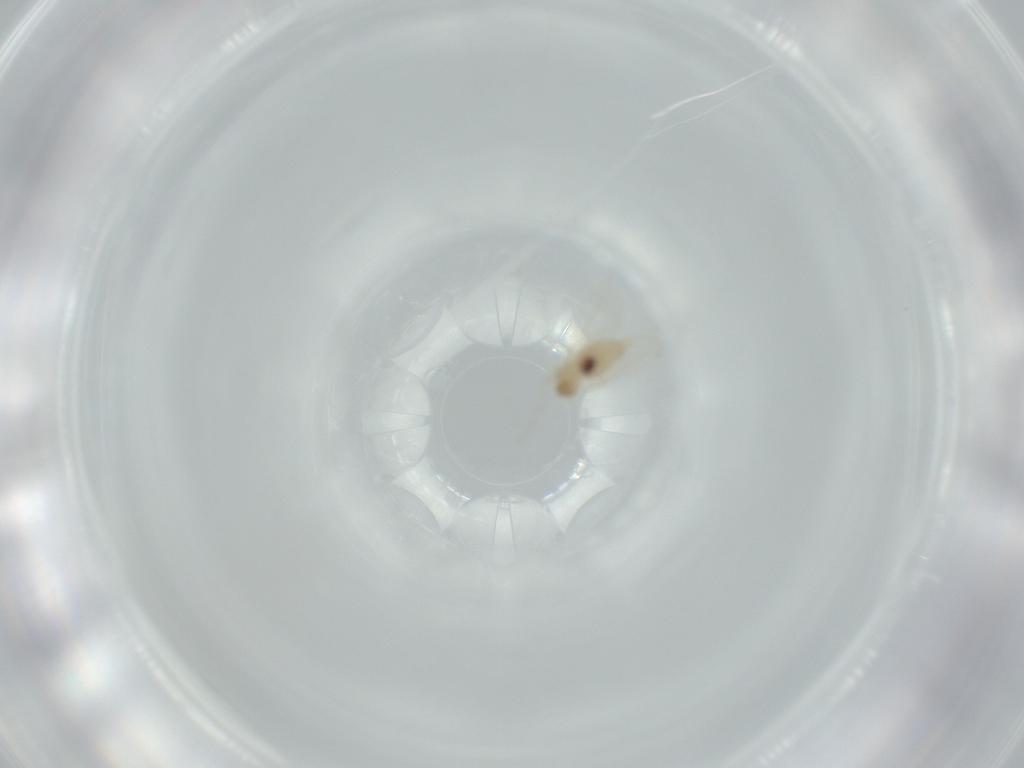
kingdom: Animalia
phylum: Arthropoda
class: Insecta
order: Diptera
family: Cecidomyiidae
